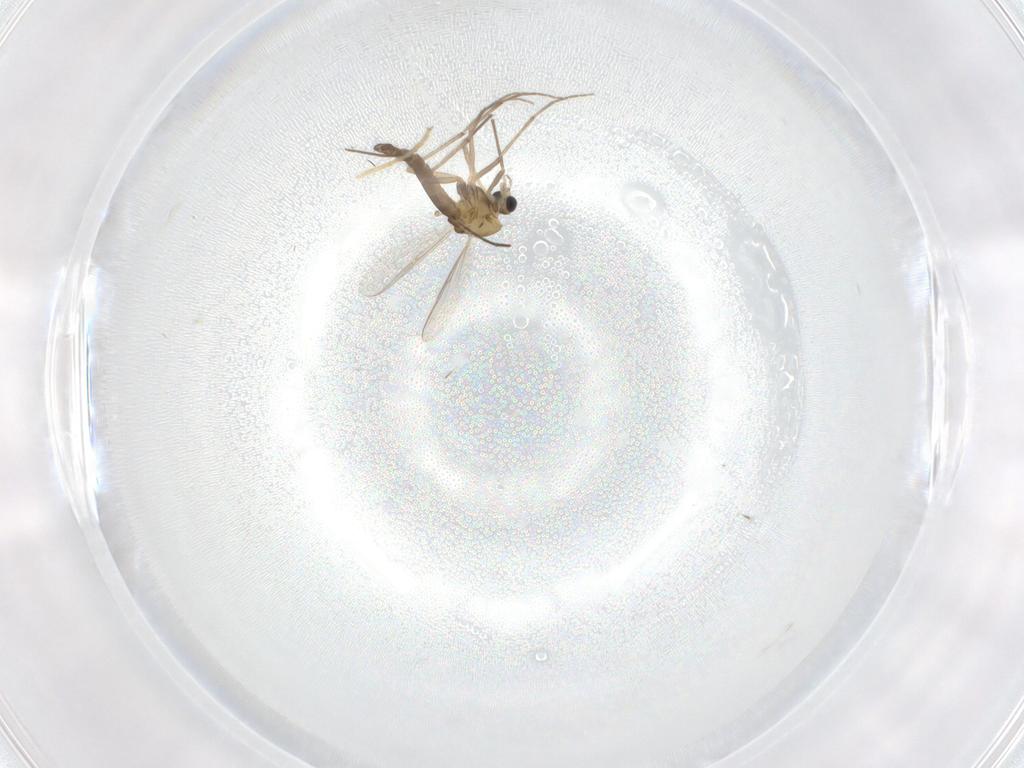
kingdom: Animalia
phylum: Arthropoda
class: Insecta
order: Diptera
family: Chironomidae
